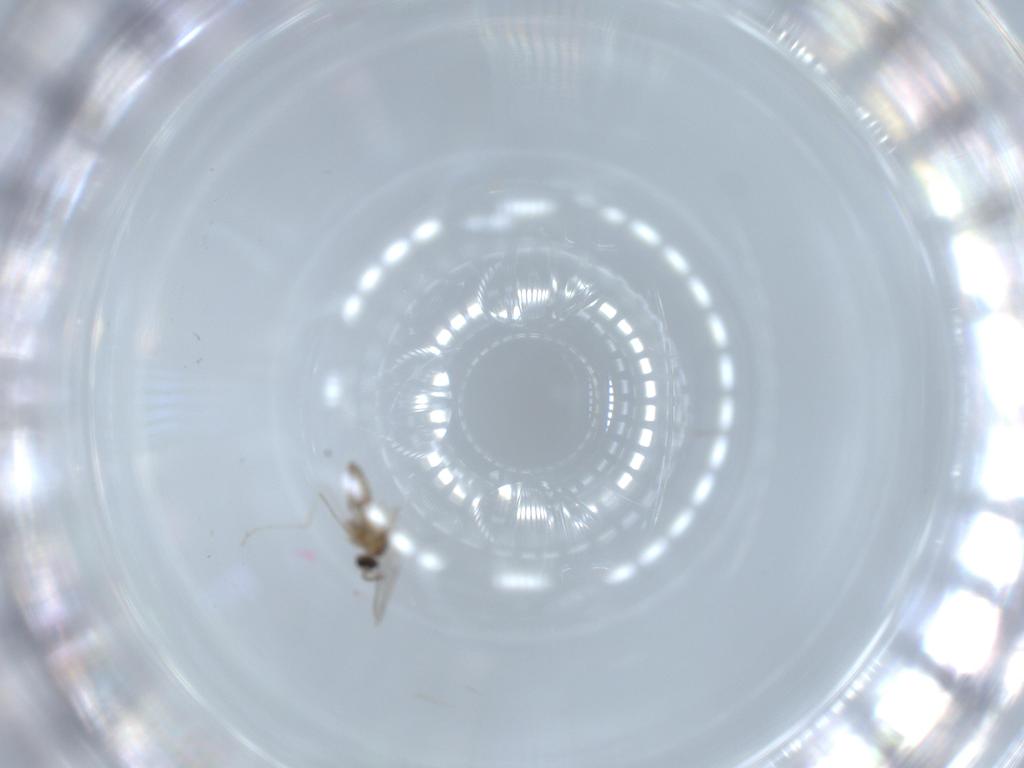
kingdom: Animalia
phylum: Arthropoda
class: Insecta
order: Diptera
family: Cecidomyiidae
